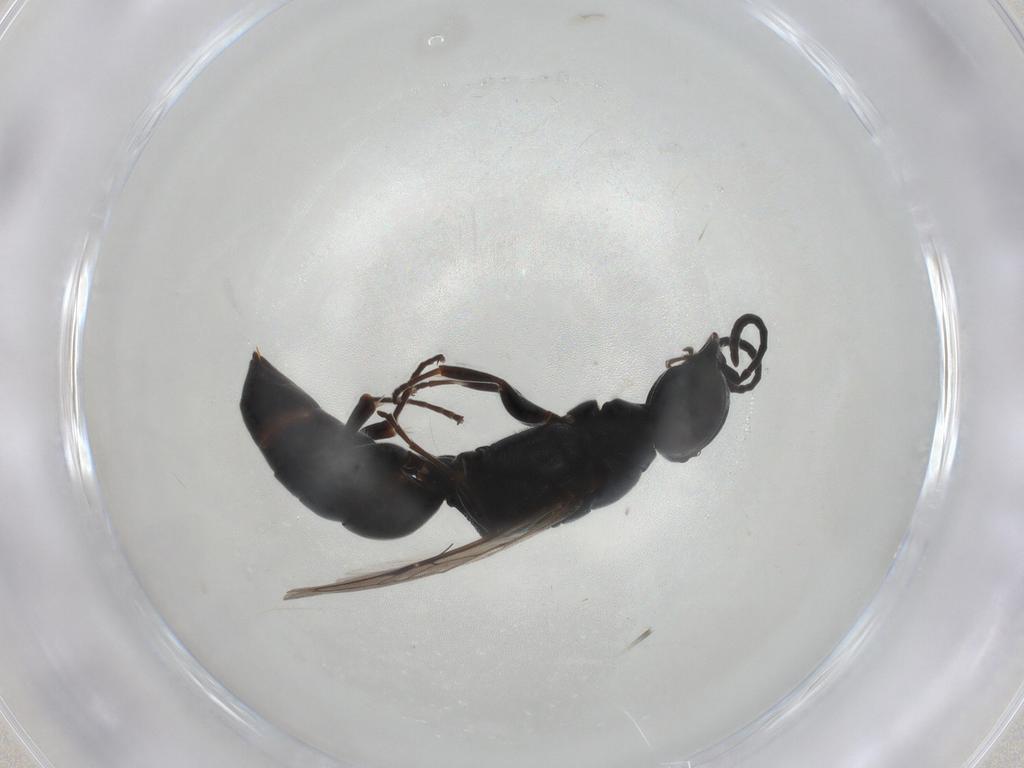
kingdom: Animalia
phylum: Arthropoda
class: Insecta
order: Hymenoptera
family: Crabronidae
